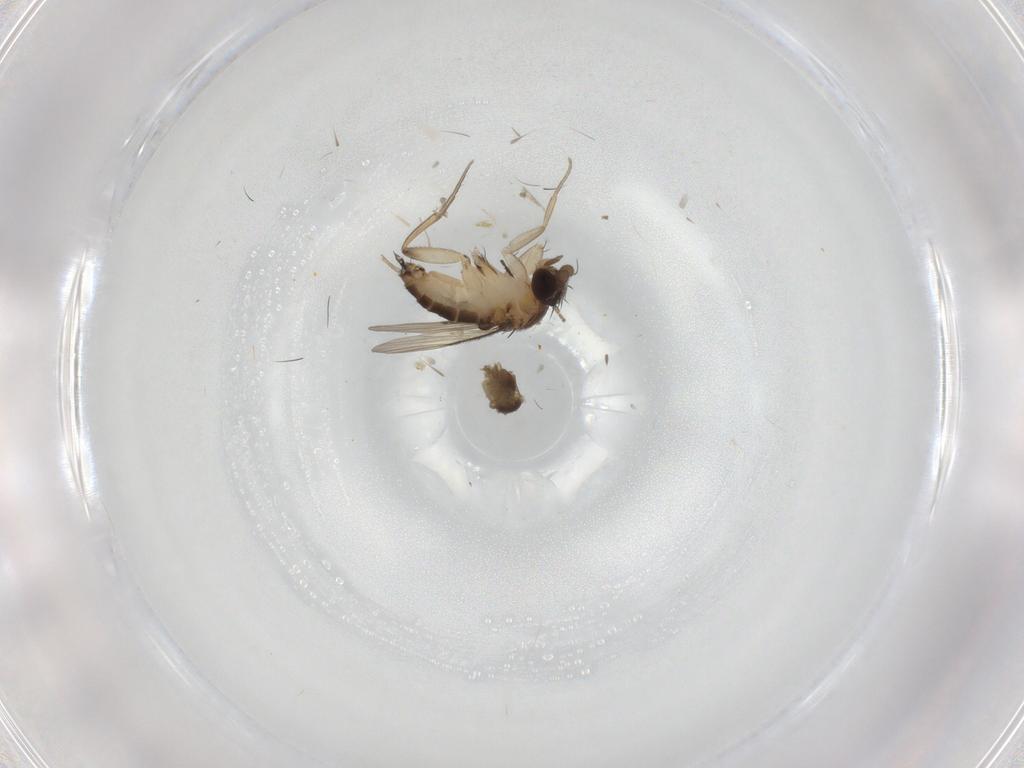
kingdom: Animalia
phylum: Arthropoda
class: Insecta
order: Diptera
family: Phoridae
